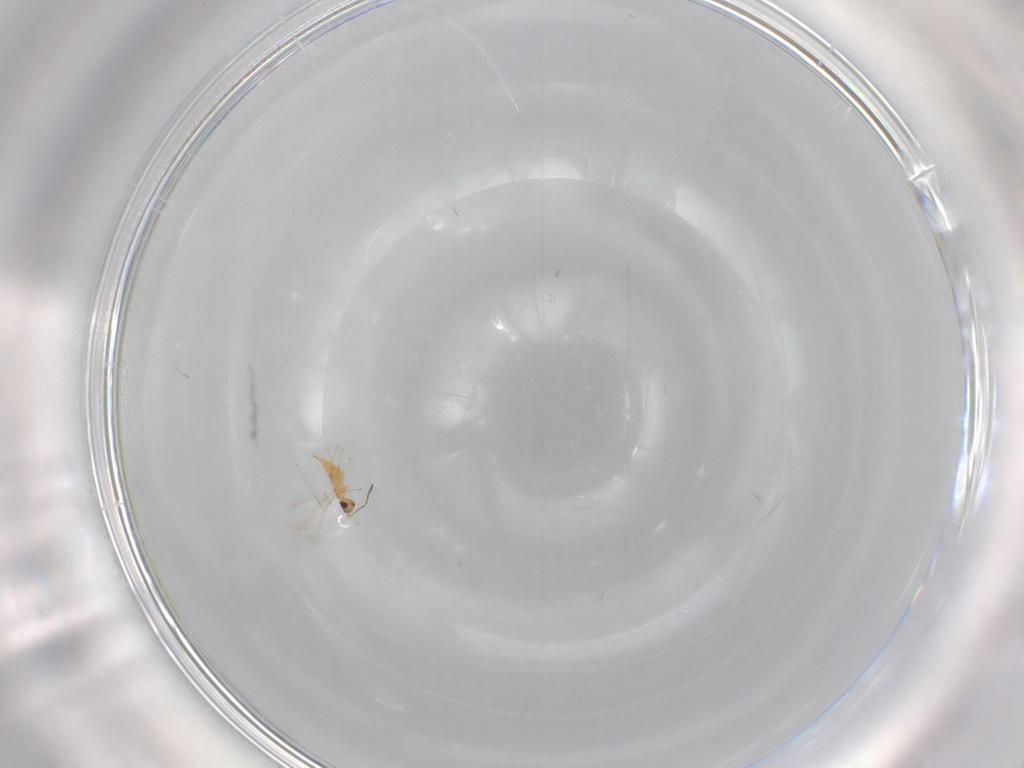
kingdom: Animalia
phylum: Arthropoda
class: Insecta
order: Hymenoptera
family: Mymaridae
